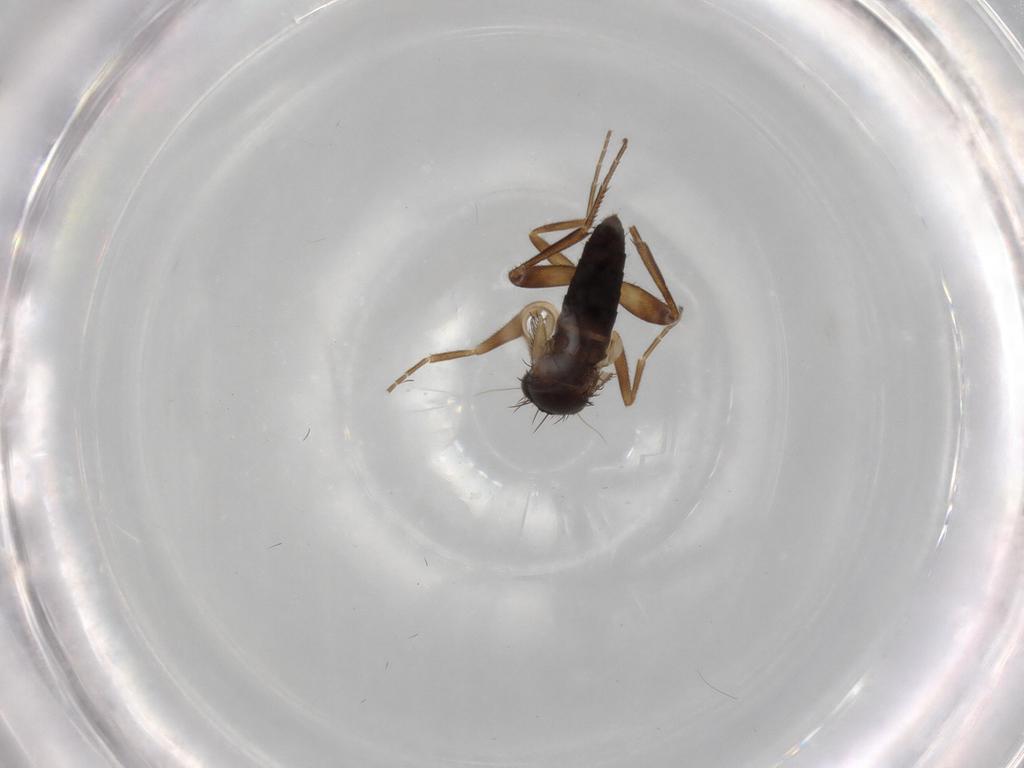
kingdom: Animalia
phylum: Arthropoda
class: Insecta
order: Diptera
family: Phoridae
